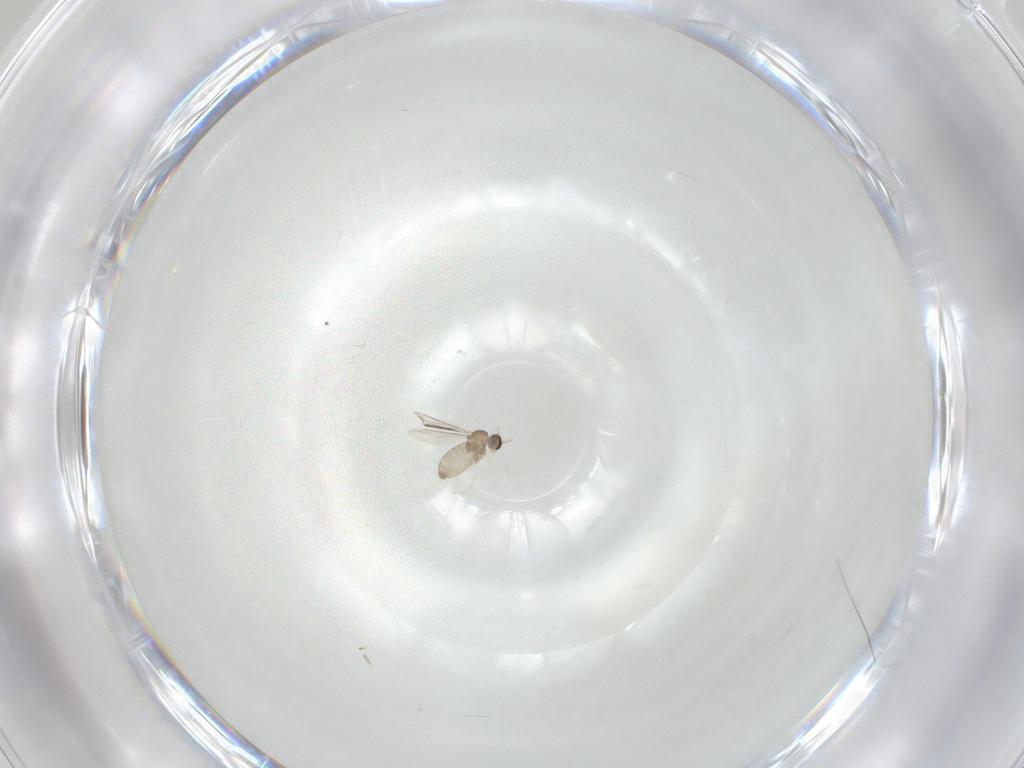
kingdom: Animalia
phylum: Arthropoda
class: Insecta
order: Diptera
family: Cecidomyiidae
